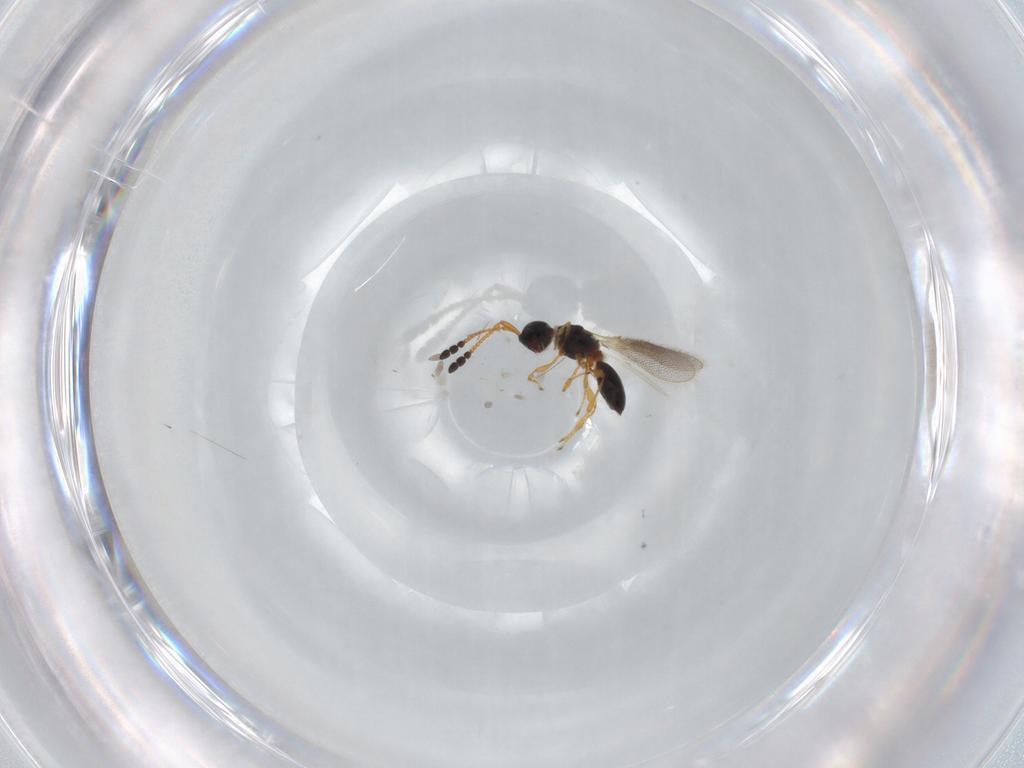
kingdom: Animalia
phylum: Arthropoda
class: Insecta
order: Hymenoptera
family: Diapriidae
